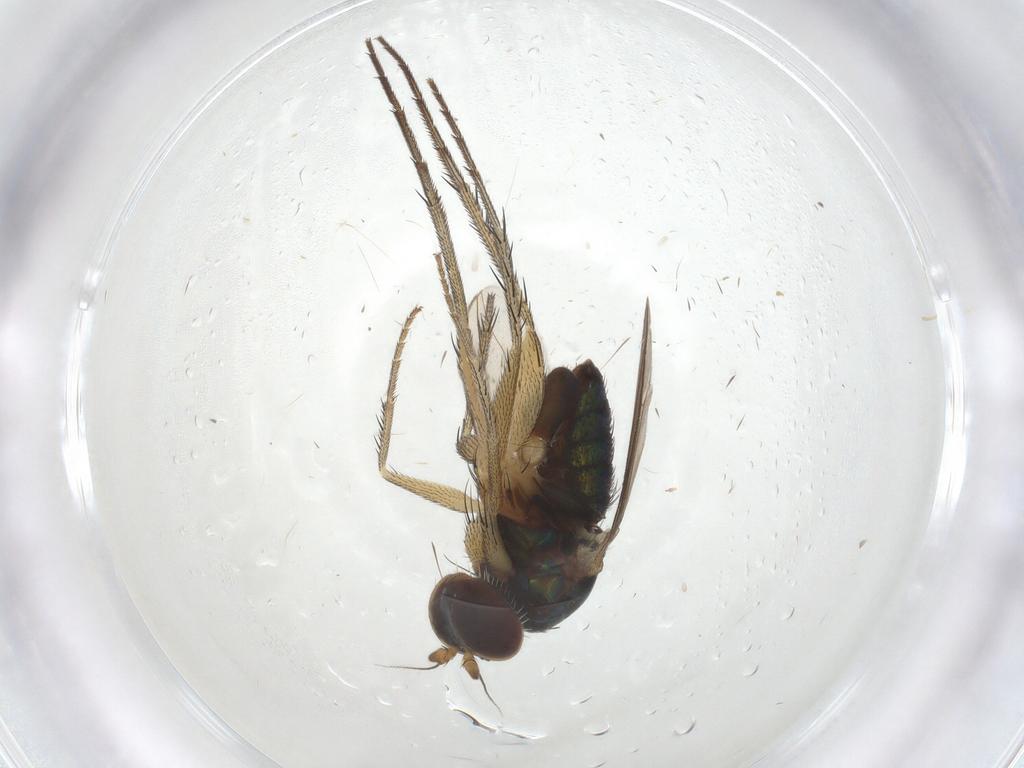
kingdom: Animalia
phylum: Arthropoda
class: Insecta
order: Diptera
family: Dolichopodidae
